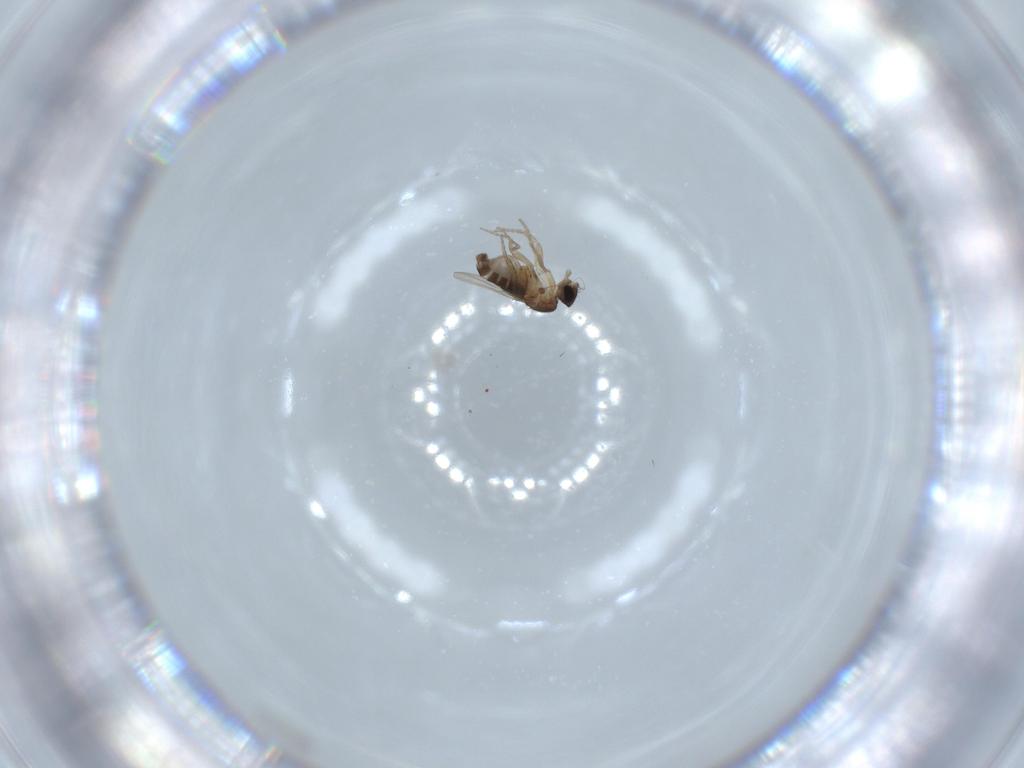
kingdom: Animalia
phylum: Arthropoda
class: Insecta
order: Diptera
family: Phoridae
